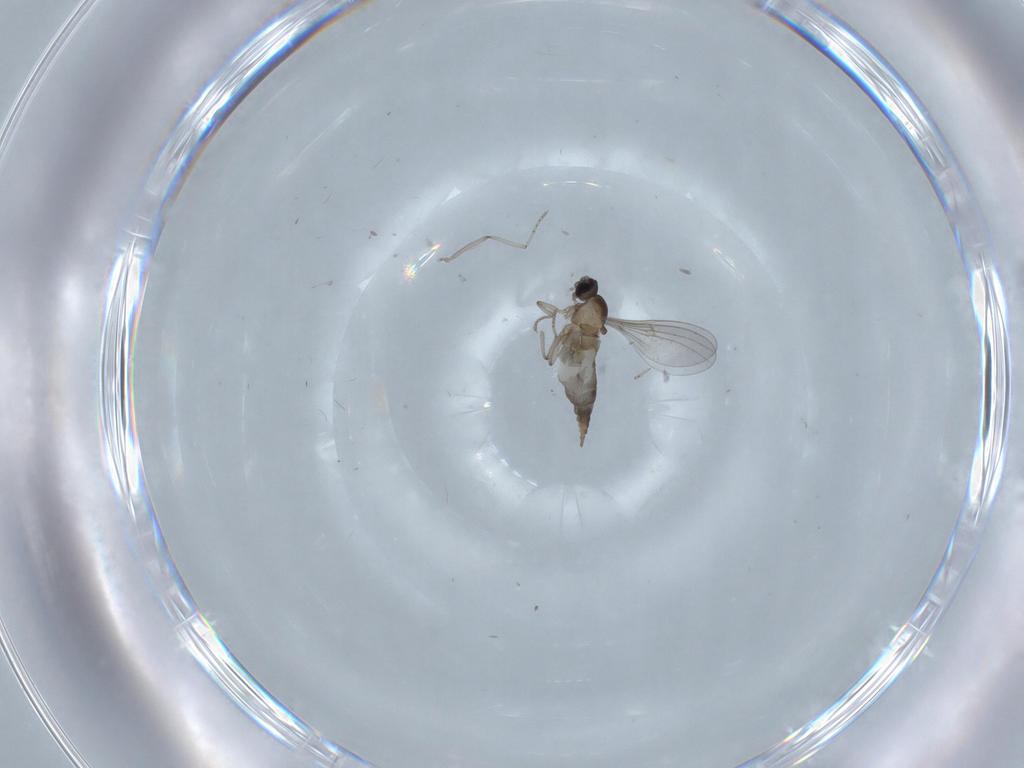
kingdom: Animalia
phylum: Arthropoda
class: Insecta
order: Diptera
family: Cecidomyiidae
